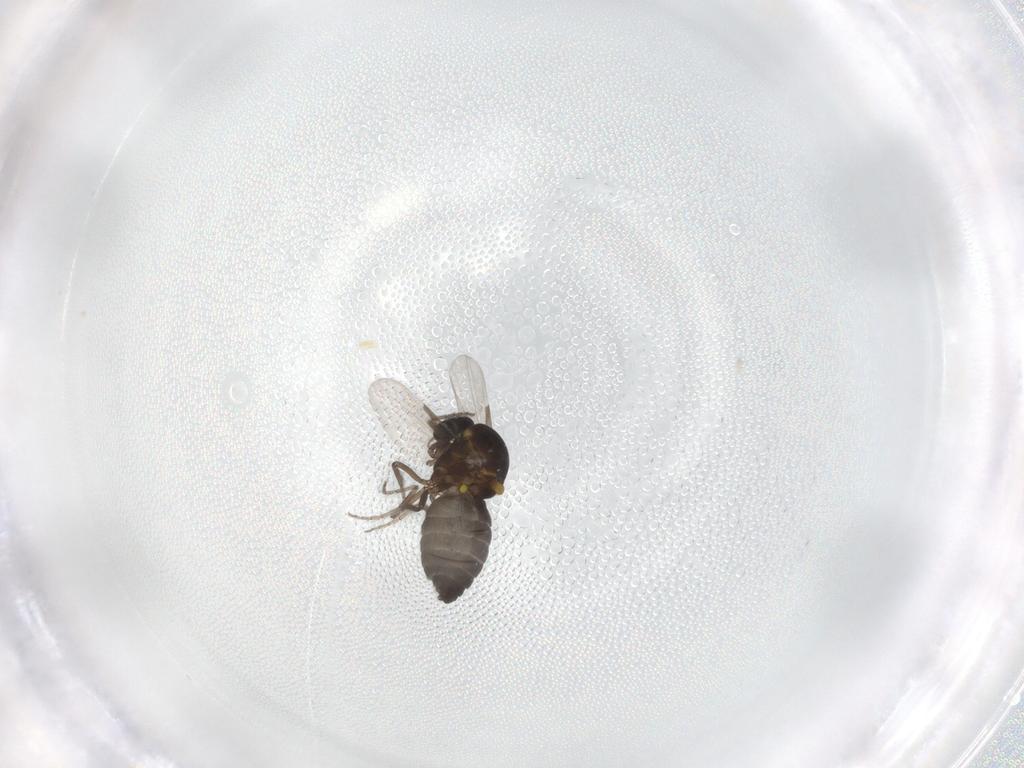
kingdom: Animalia
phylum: Arthropoda
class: Insecta
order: Diptera
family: Ceratopogonidae
